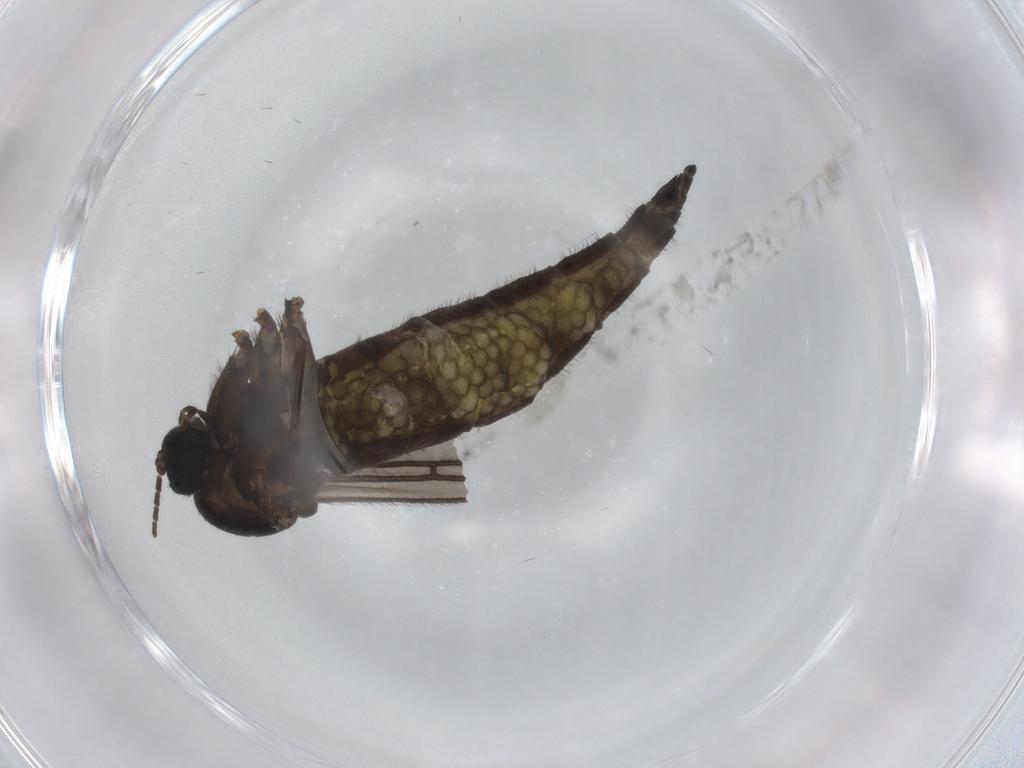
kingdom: Animalia
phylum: Arthropoda
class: Insecta
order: Diptera
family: Sciaridae
